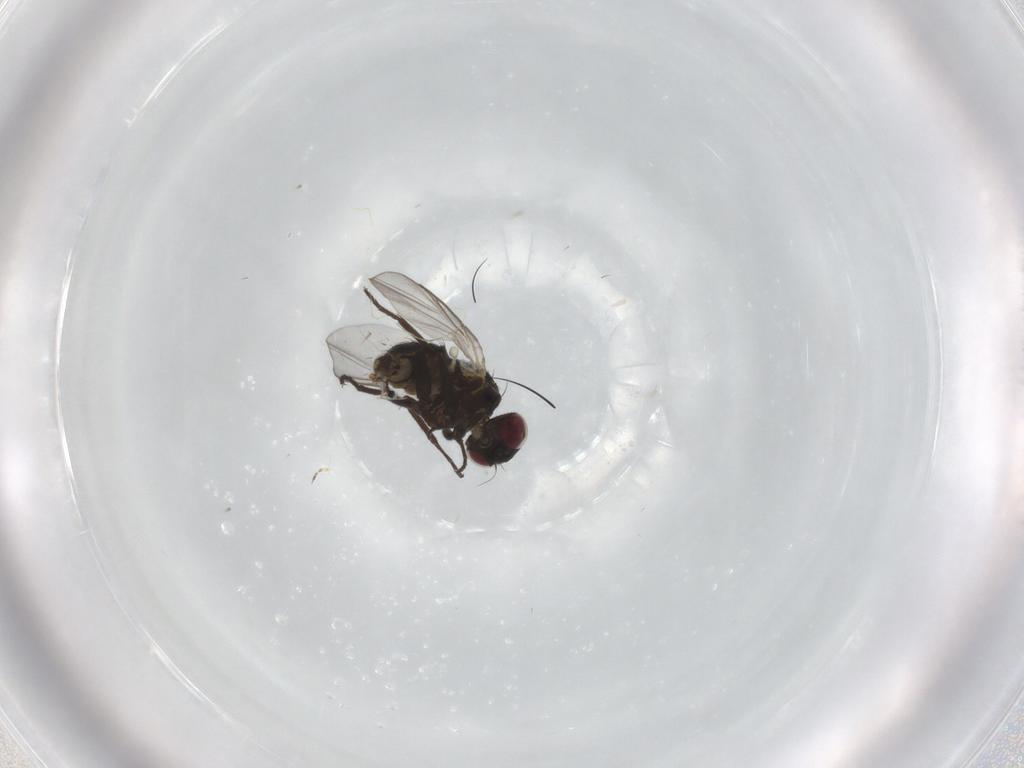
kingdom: Animalia
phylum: Arthropoda
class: Insecta
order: Diptera
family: Agromyzidae
